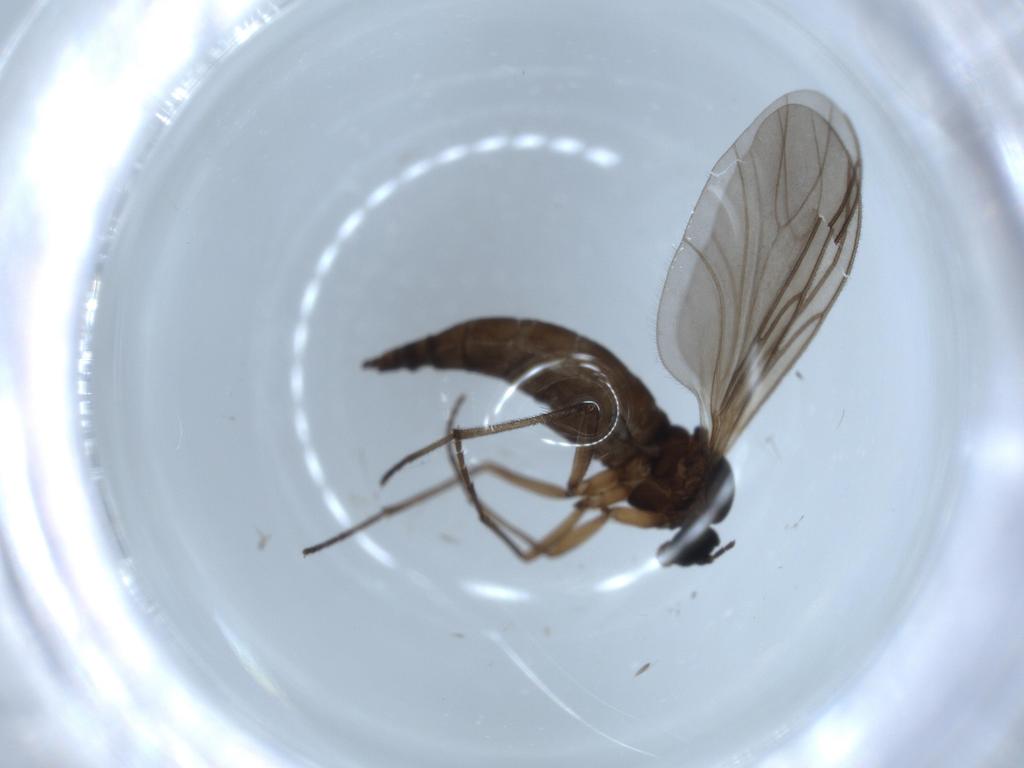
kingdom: Animalia
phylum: Arthropoda
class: Insecta
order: Diptera
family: Sciaridae
